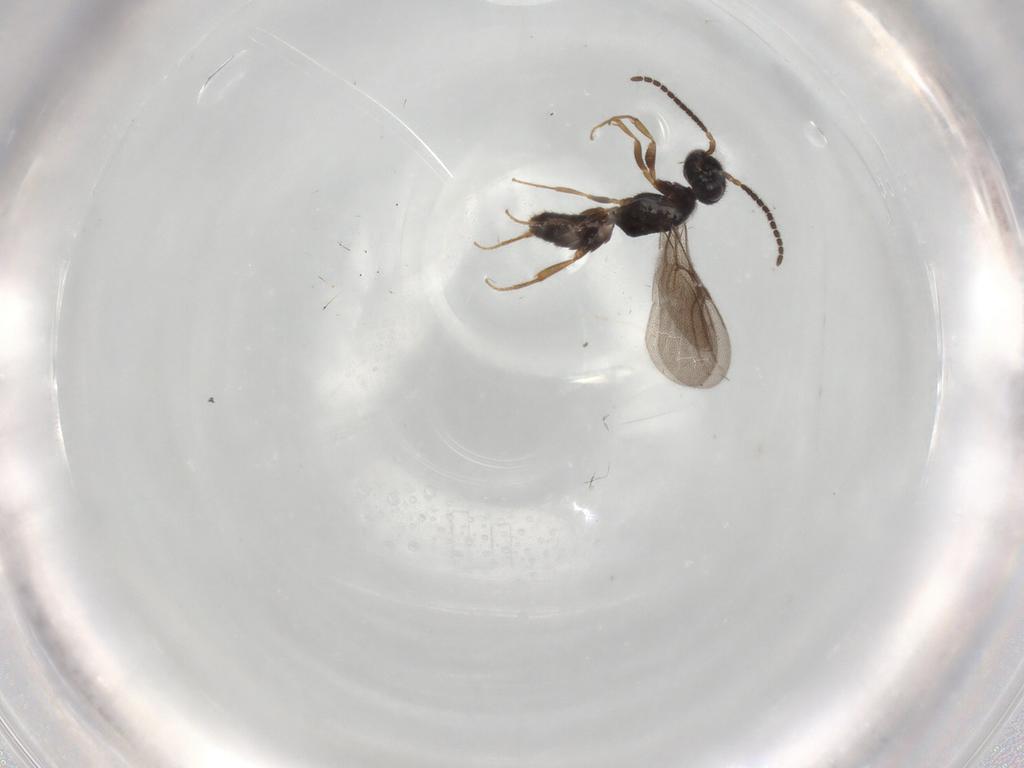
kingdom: Animalia
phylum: Arthropoda
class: Insecta
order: Hymenoptera
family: Bethylidae
